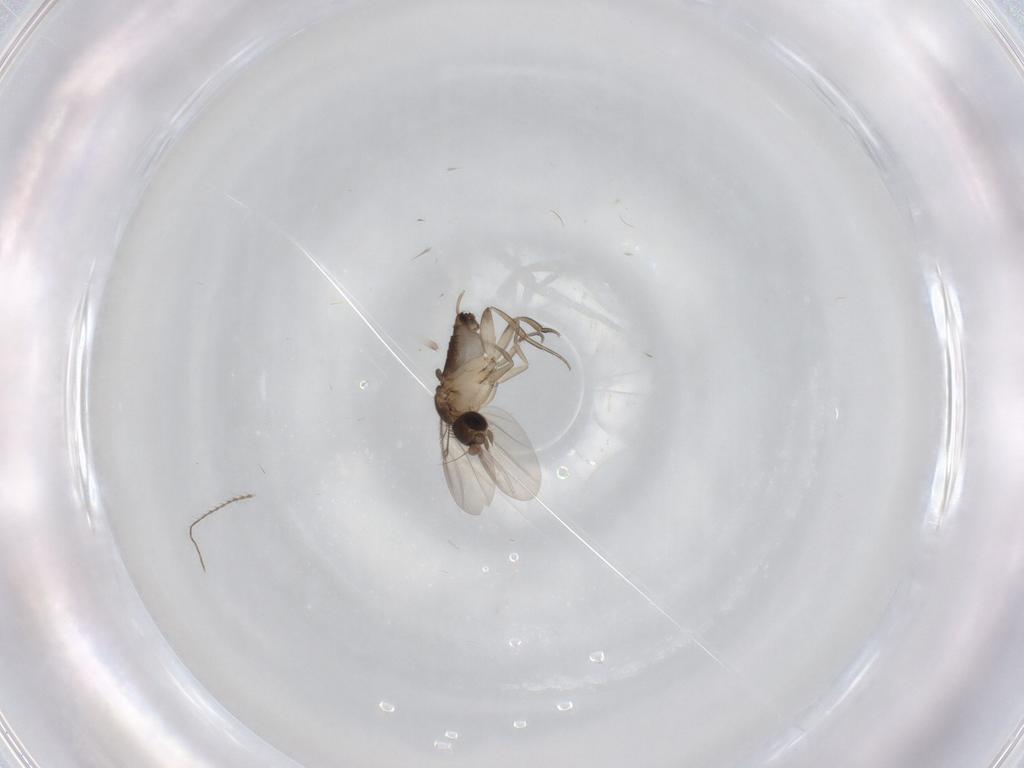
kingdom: Animalia
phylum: Arthropoda
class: Insecta
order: Diptera
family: Phoridae
